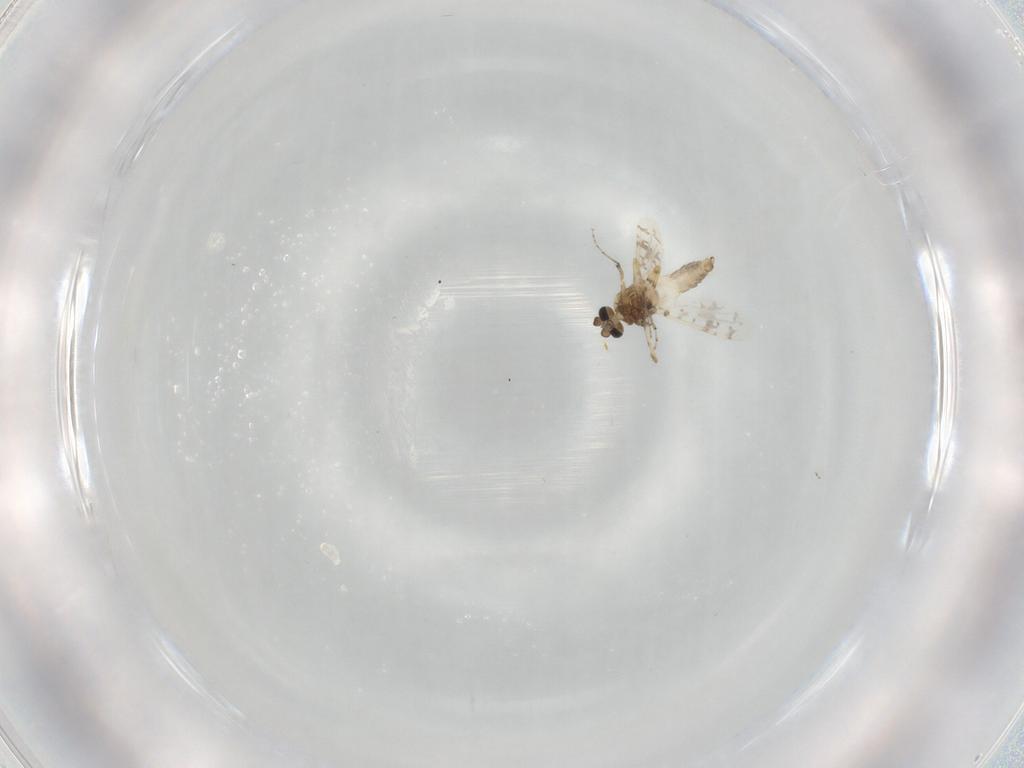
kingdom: Animalia
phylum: Arthropoda
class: Insecta
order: Diptera
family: Ceratopogonidae
